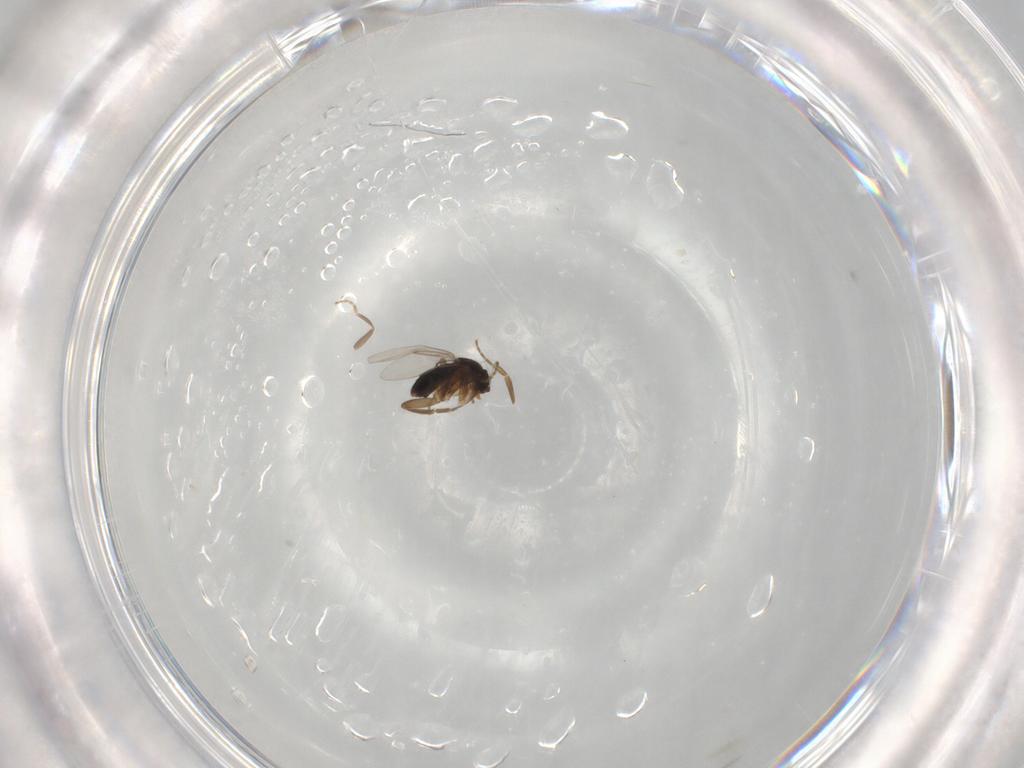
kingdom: Animalia
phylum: Arthropoda
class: Insecta
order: Diptera
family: Phoridae
